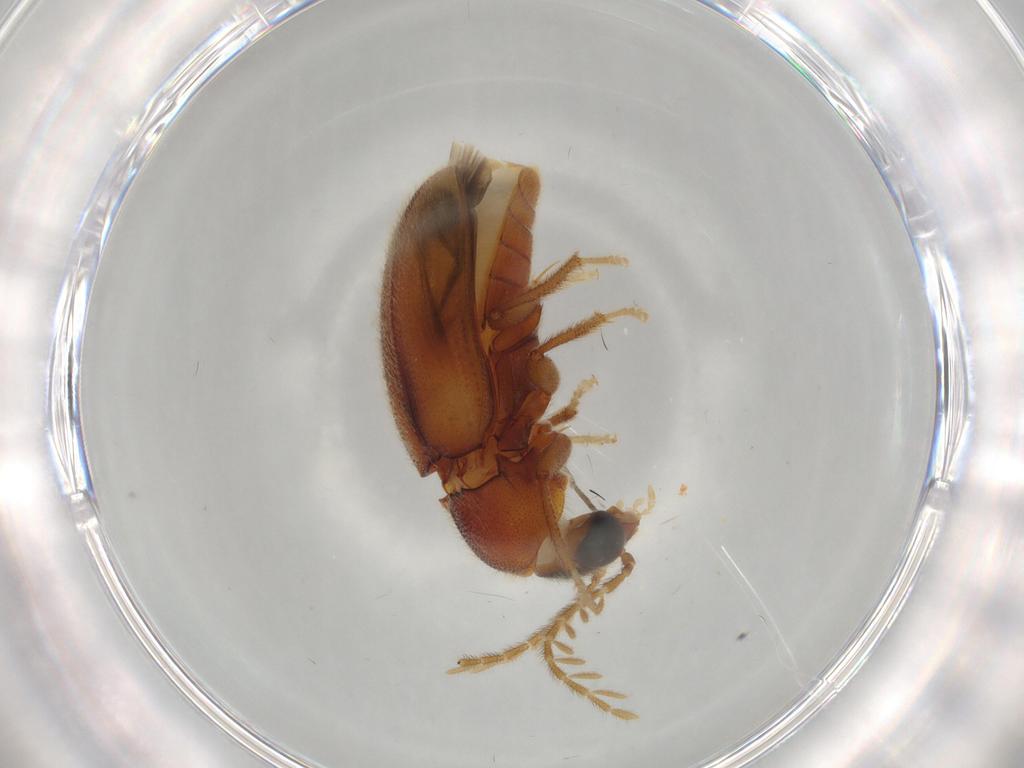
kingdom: Animalia
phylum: Arthropoda
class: Insecta
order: Coleoptera
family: Ptilodactylidae
